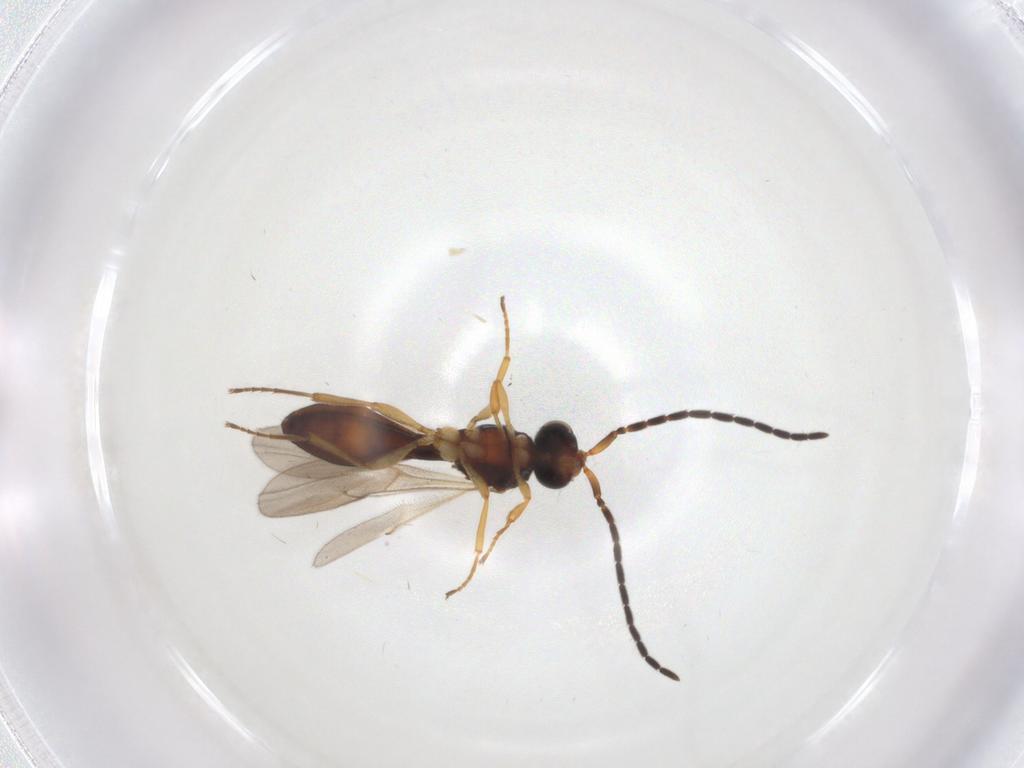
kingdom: Animalia
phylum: Arthropoda
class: Insecta
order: Hymenoptera
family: Scelionidae
